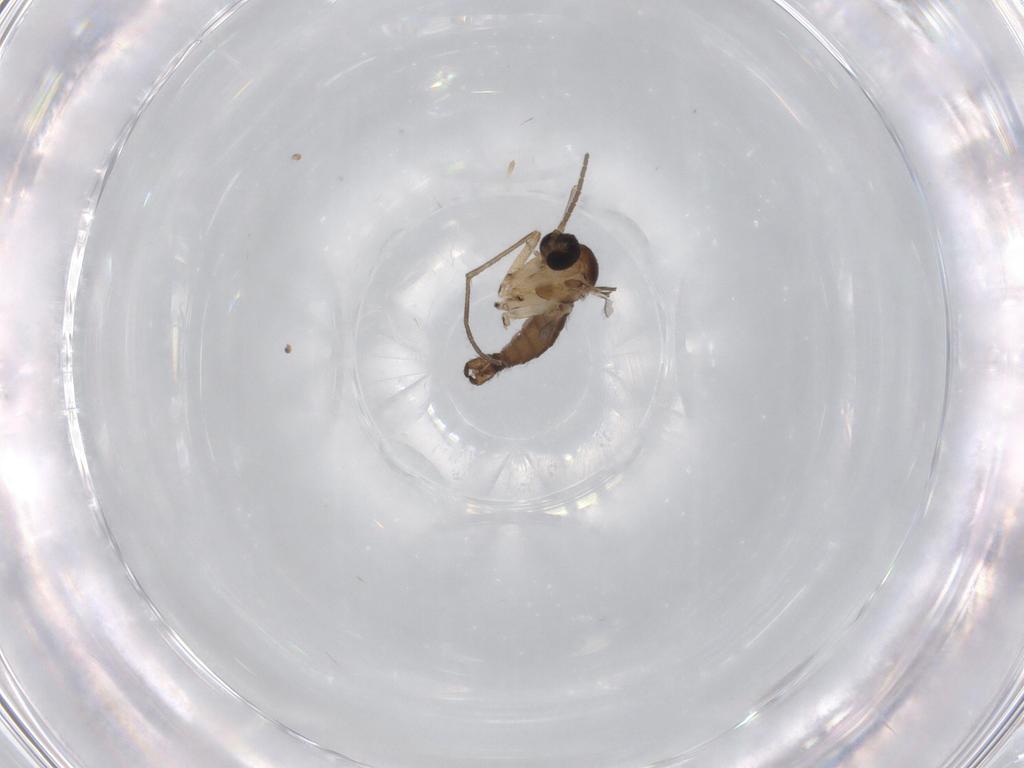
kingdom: Animalia
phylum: Arthropoda
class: Insecta
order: Diptera
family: Sciaridae
